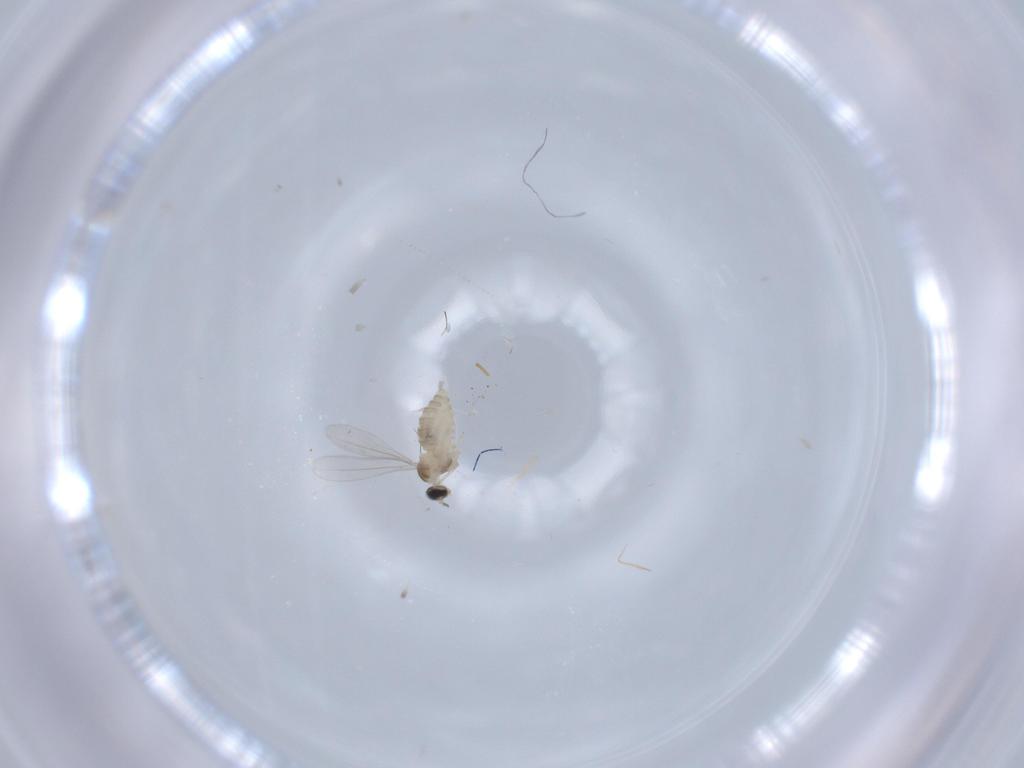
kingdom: Animalia
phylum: Arthropoda
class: Insecta
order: Diptera
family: Cecidomyiidae
